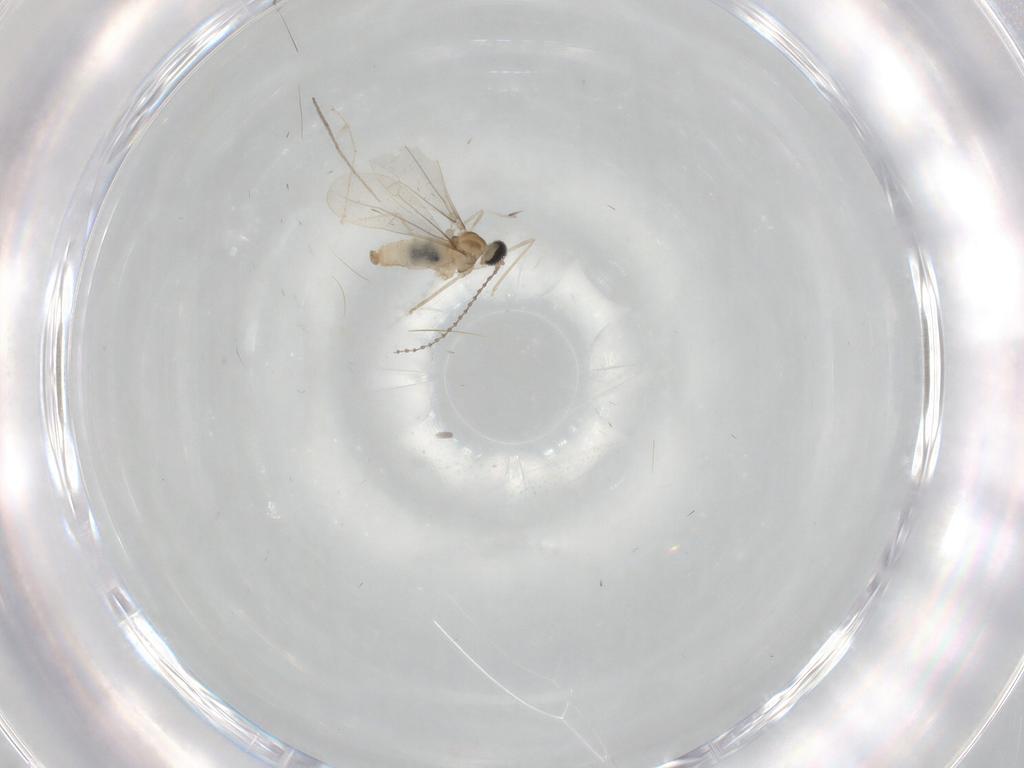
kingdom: Animalia
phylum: Arthropoda
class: Insecta
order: Diptera
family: Cecidomyiidae
